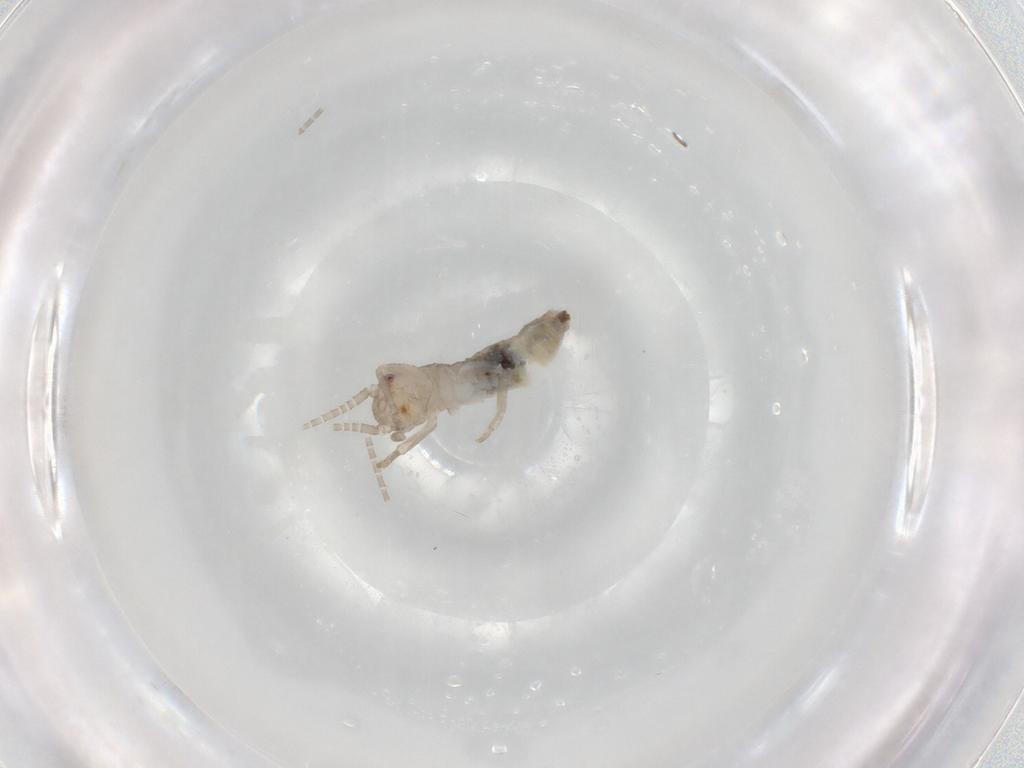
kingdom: Animalia
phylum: Arthropoda
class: Insecta
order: Orthoptera
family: Gryllidae
